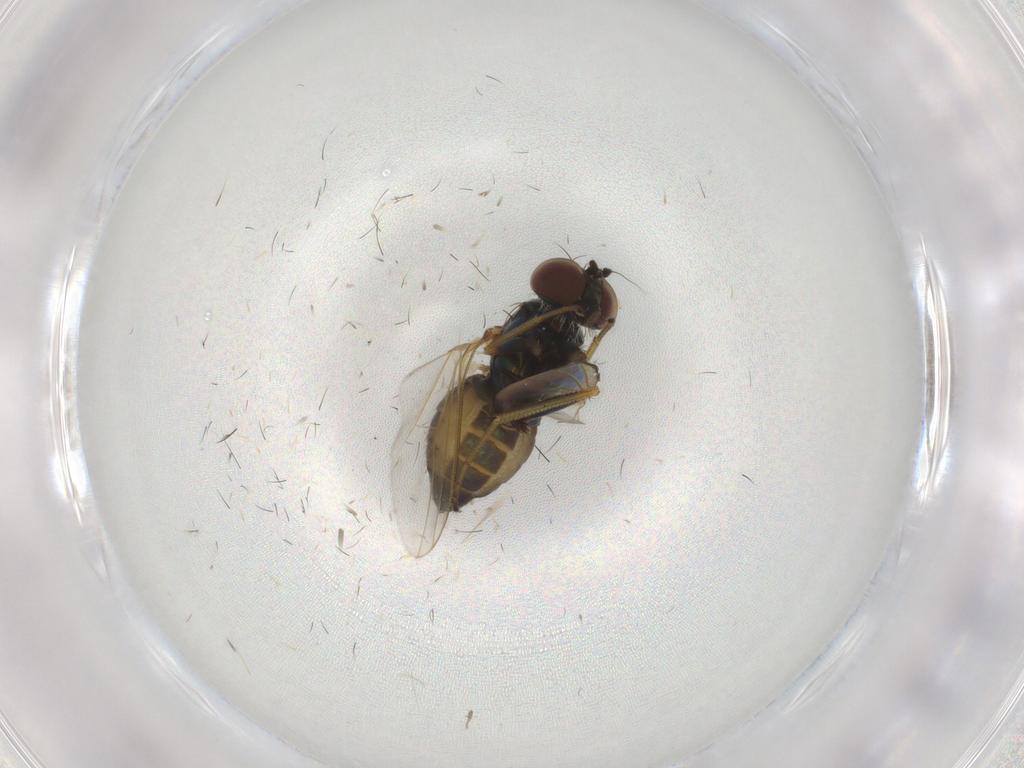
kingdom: Animalia
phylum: Arthropoda
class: Insecta
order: Diptera
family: Dolichopodidae
